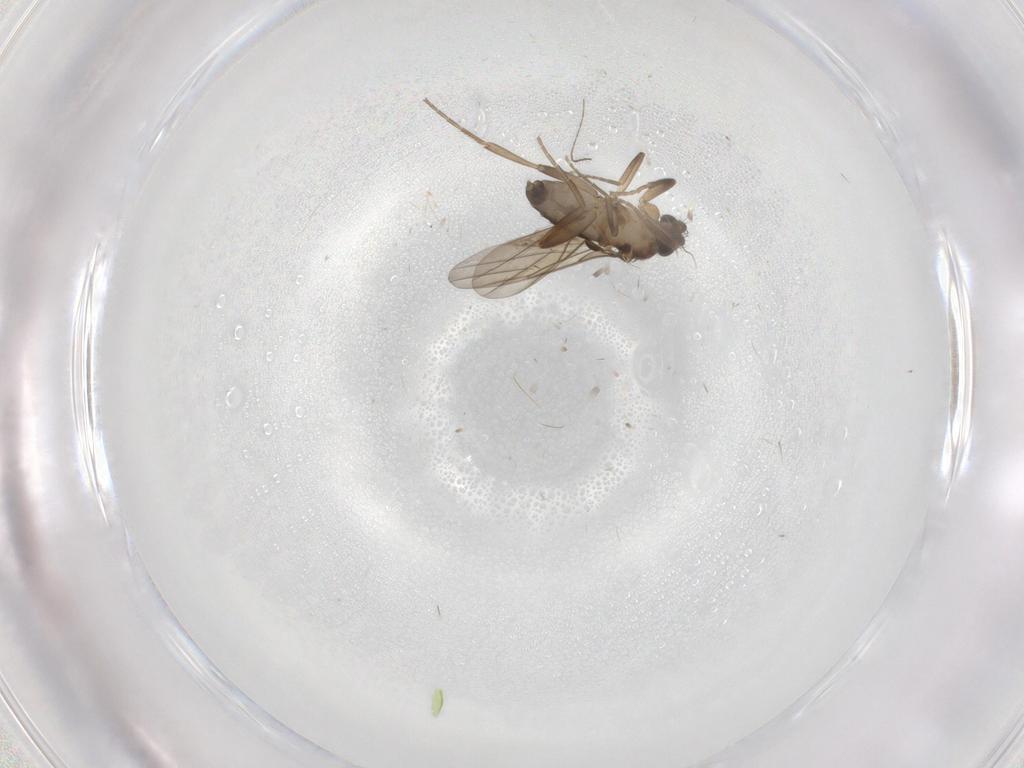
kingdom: Animalia
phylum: Arthropoda
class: Insecta
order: Diptera
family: Phoridae
